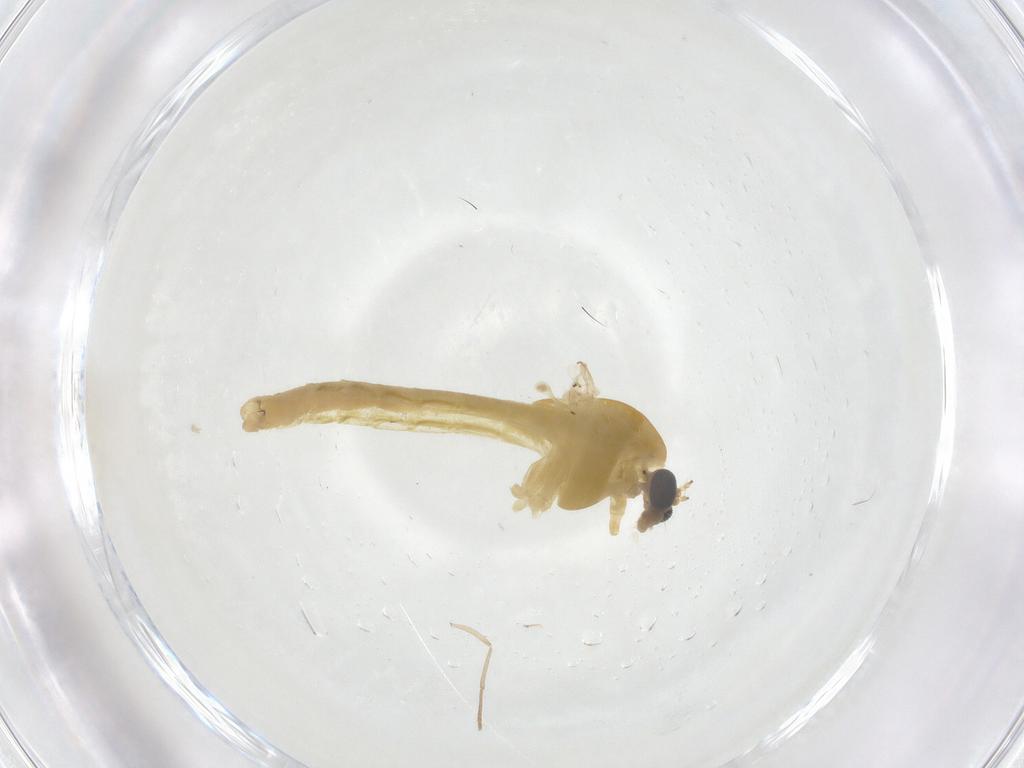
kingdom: Animalia
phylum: Arthropoda
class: Insecta
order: Diptera
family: Chironomidae
